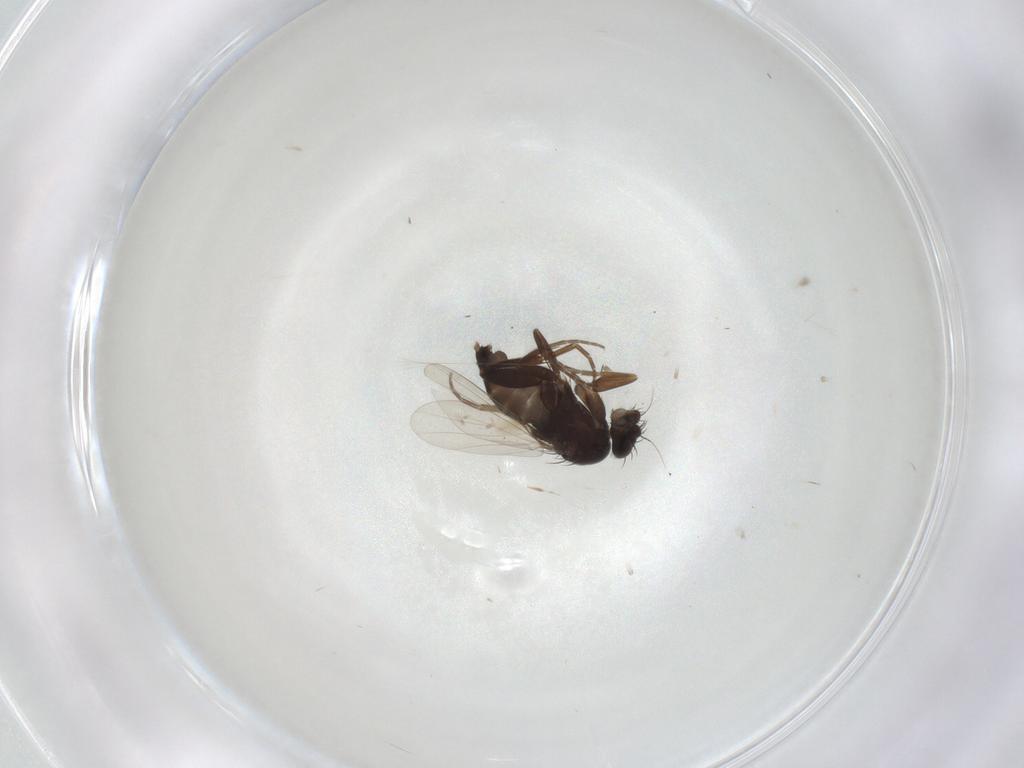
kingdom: Animalia
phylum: Arthropoda
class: Insecta
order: Diptera
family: Phoridae
